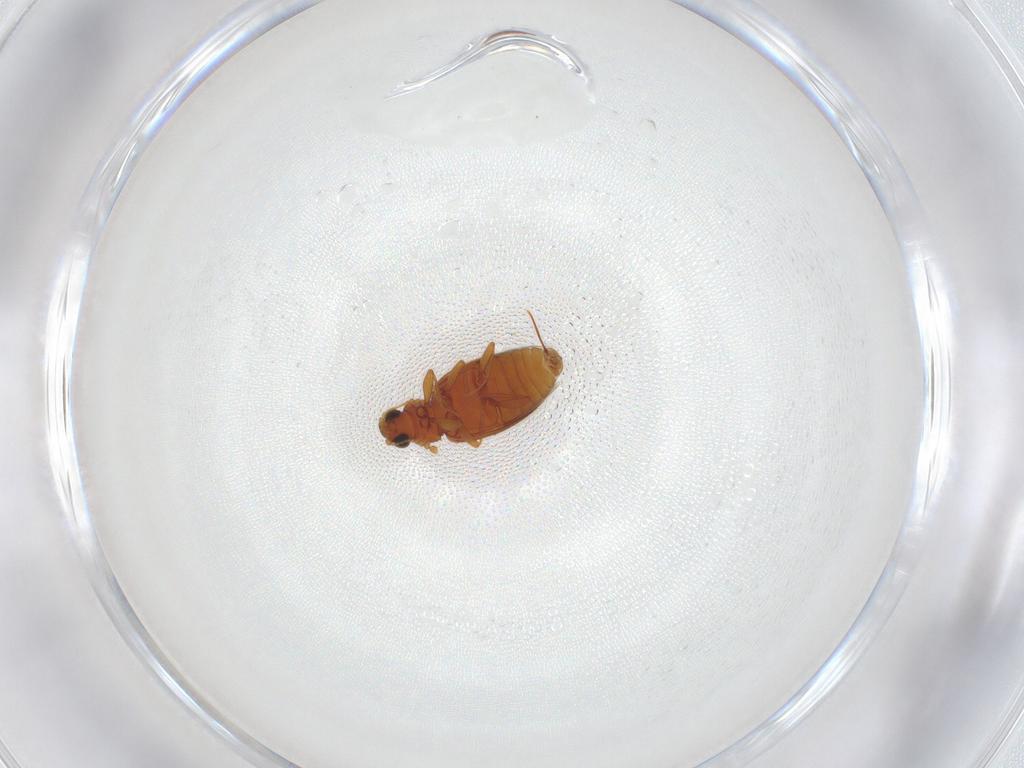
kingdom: Animalia
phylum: Arthropoda
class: Insecta
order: Coleoptera
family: Latridiidae
